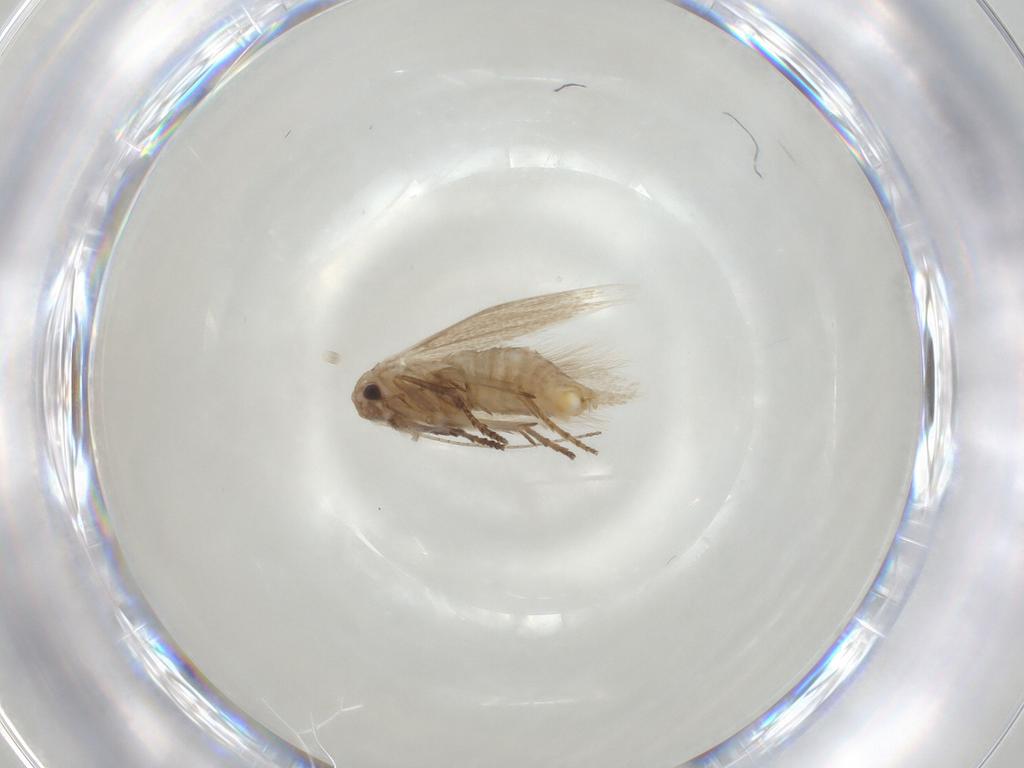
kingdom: Animalia
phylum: Arthropoda
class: Insecta
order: Lepidoptera
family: Bucculatricidae
